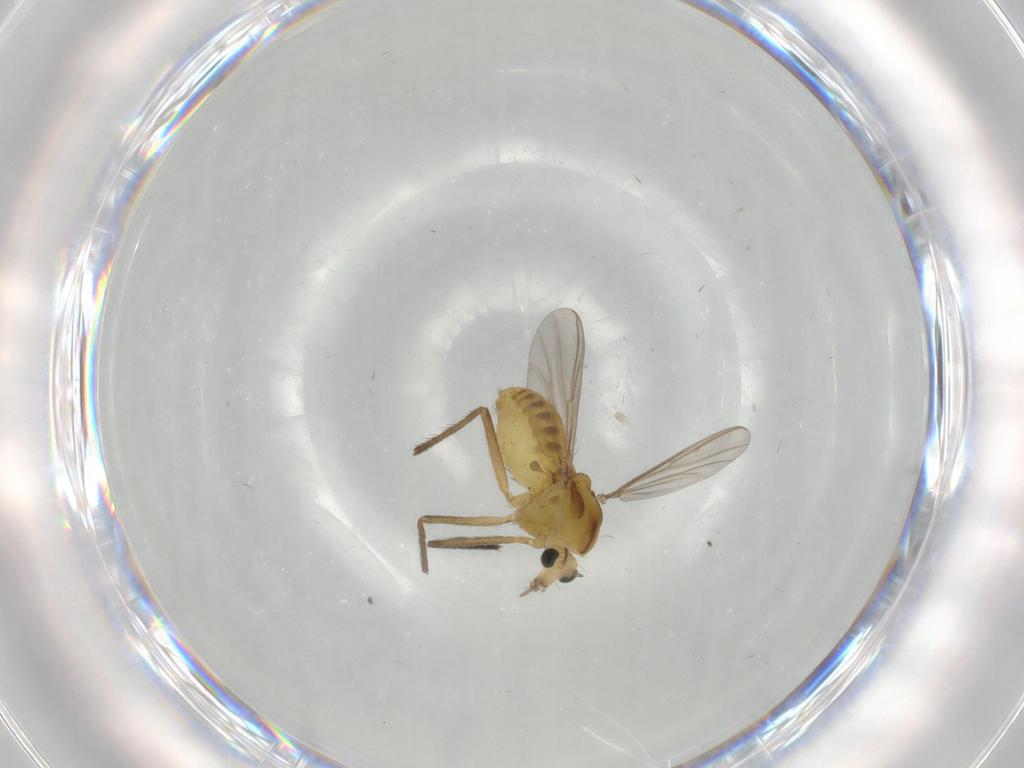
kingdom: Animalia
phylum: Arthropoda
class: Insecta
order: Diptera
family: Chironomidae
